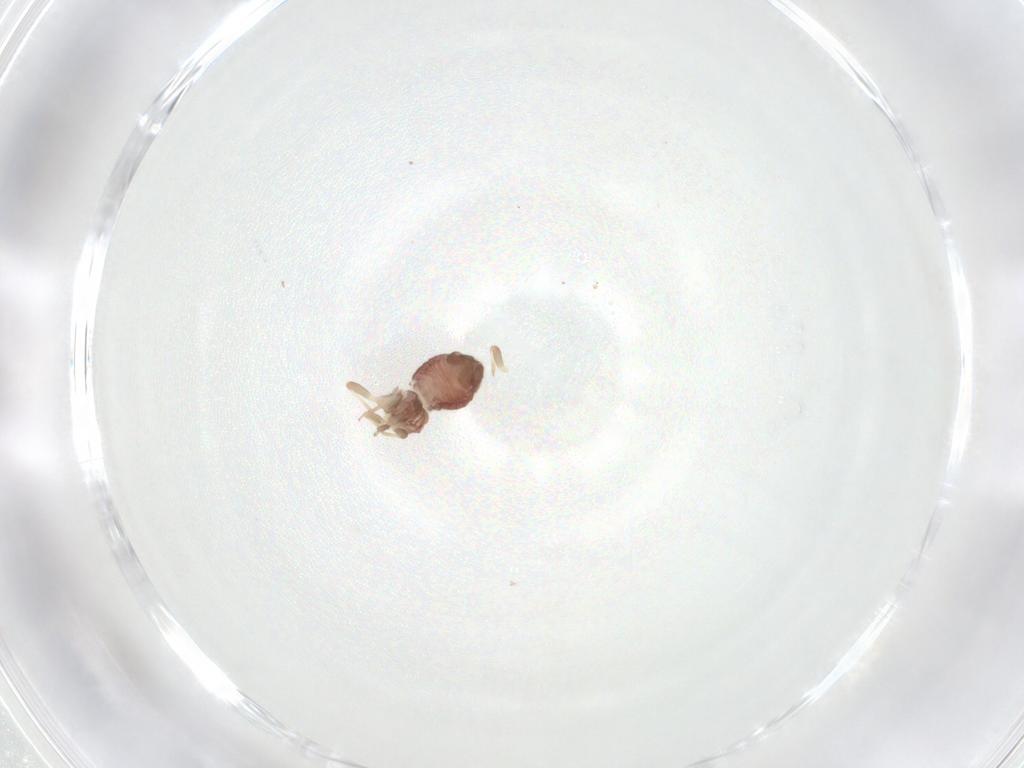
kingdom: Animalia
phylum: Arthropoda
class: Insecta
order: Psocodea
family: Archipsocidae
